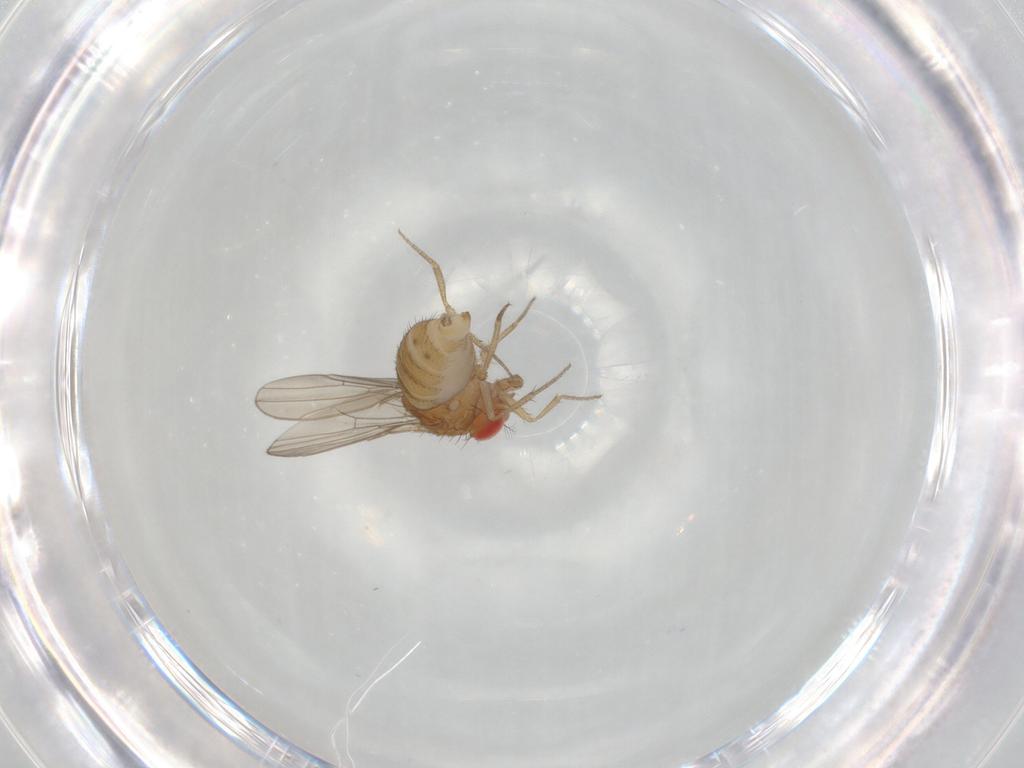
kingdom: Animalia
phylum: Arthropoda
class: Insecta
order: Diptera
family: Drosophilidae
